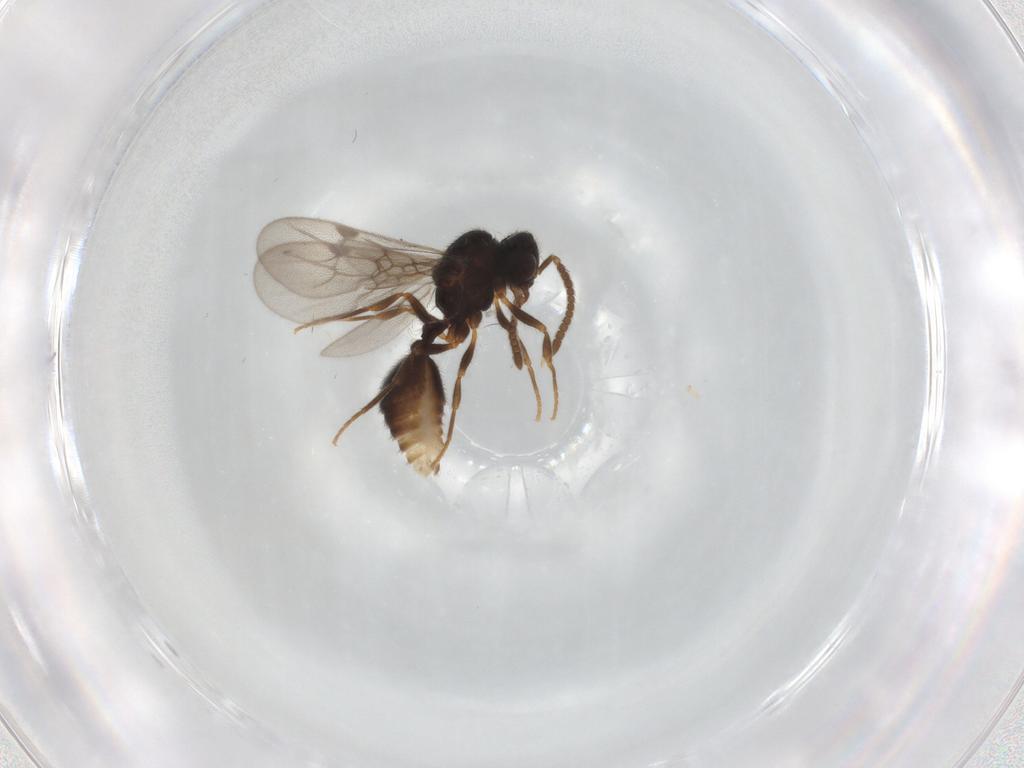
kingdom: Animalia
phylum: Arthropoda
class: Insecta
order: Hymenoptera
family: Formicidae
